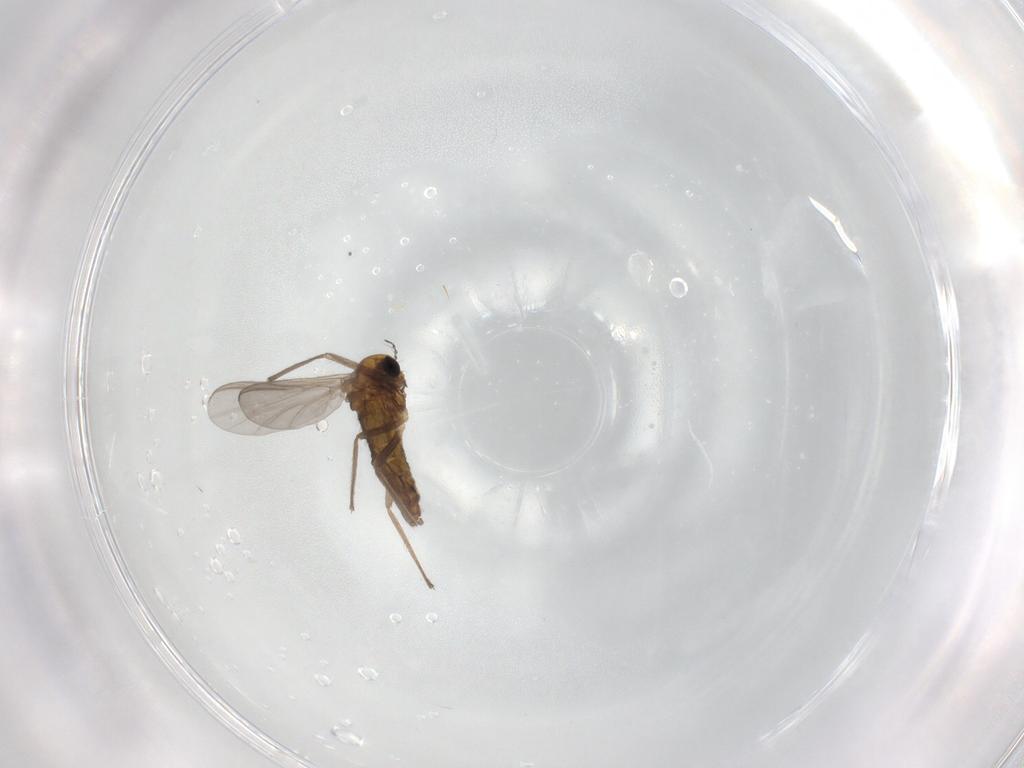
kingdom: Animalia
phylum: Arthropoda
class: Insecta
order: Diptera
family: Chironomidae
